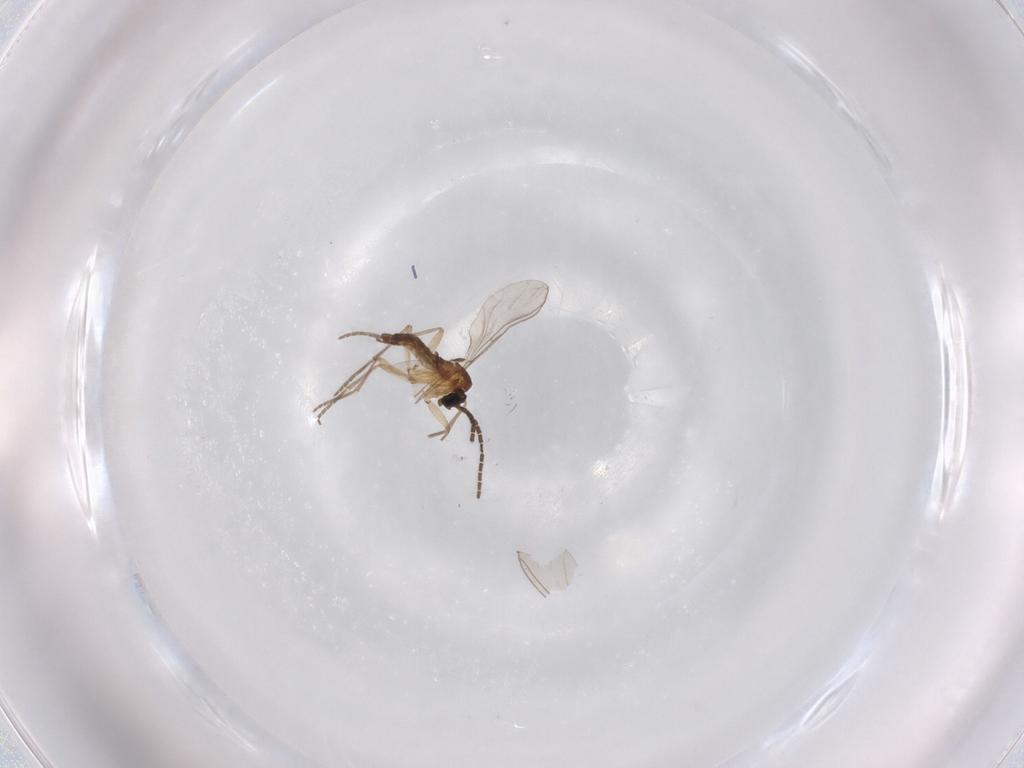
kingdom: Animalia
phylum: Arthropoda
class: Insecta
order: Diptera
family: Sciaridae
